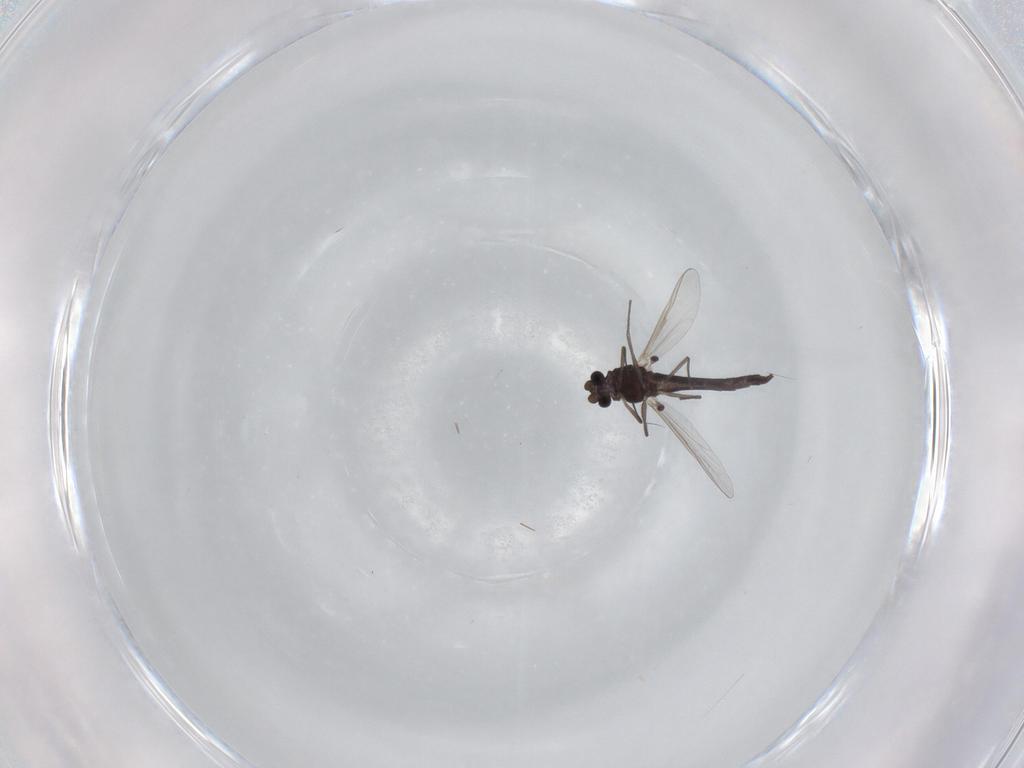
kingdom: Animalia
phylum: Arthropoda
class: Insecta
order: Diptera
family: Chironomidae
